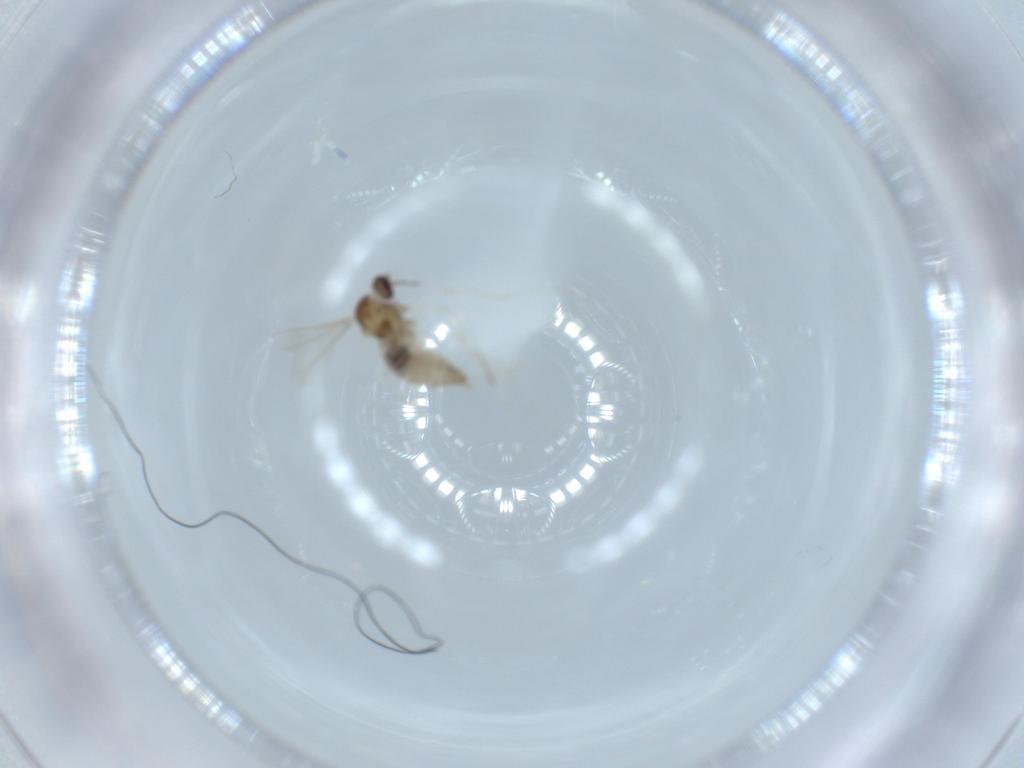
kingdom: Animalia
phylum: Arthropoda
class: Insecta
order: Diptera
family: Cecidomyiidae
